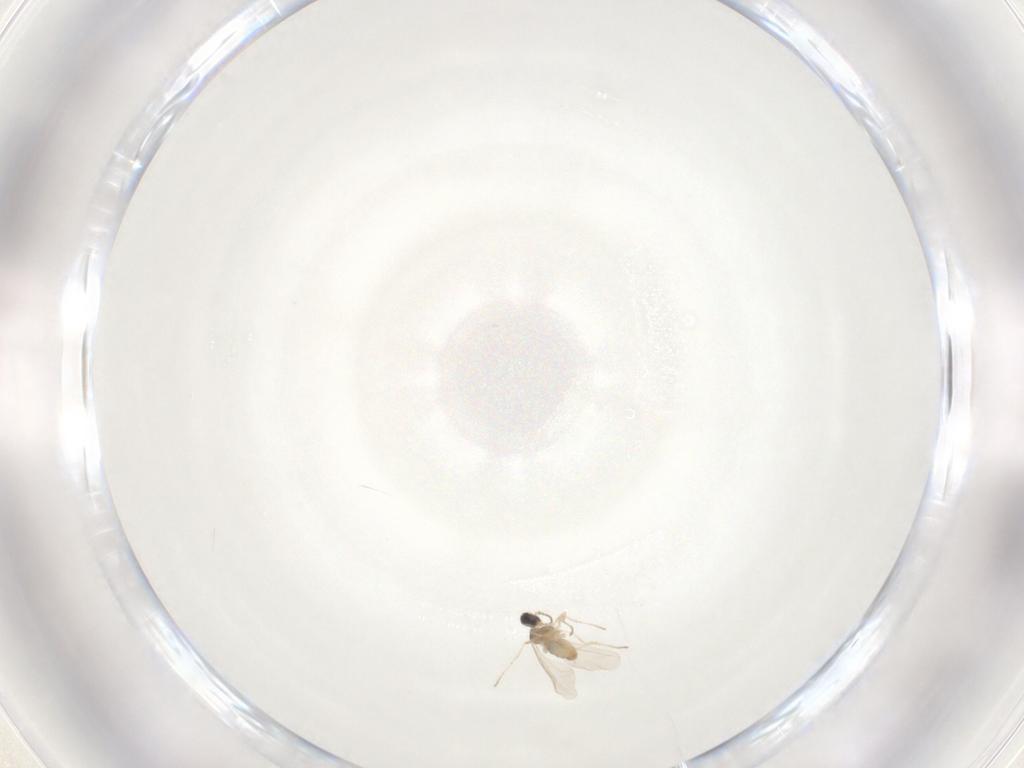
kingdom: Animalia
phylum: Arthropoda
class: Insecta
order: Diptera
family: Cecidomyiidae
